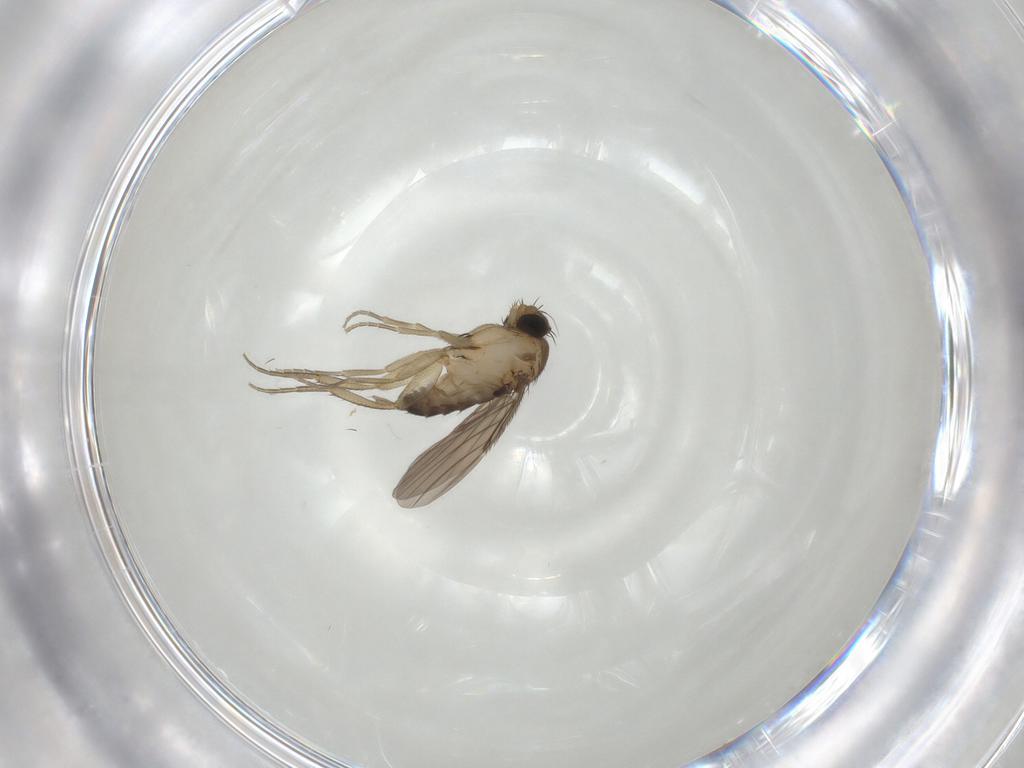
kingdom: Animalia
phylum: Arthropoda
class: Insecta
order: Diptera
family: Phoridae
